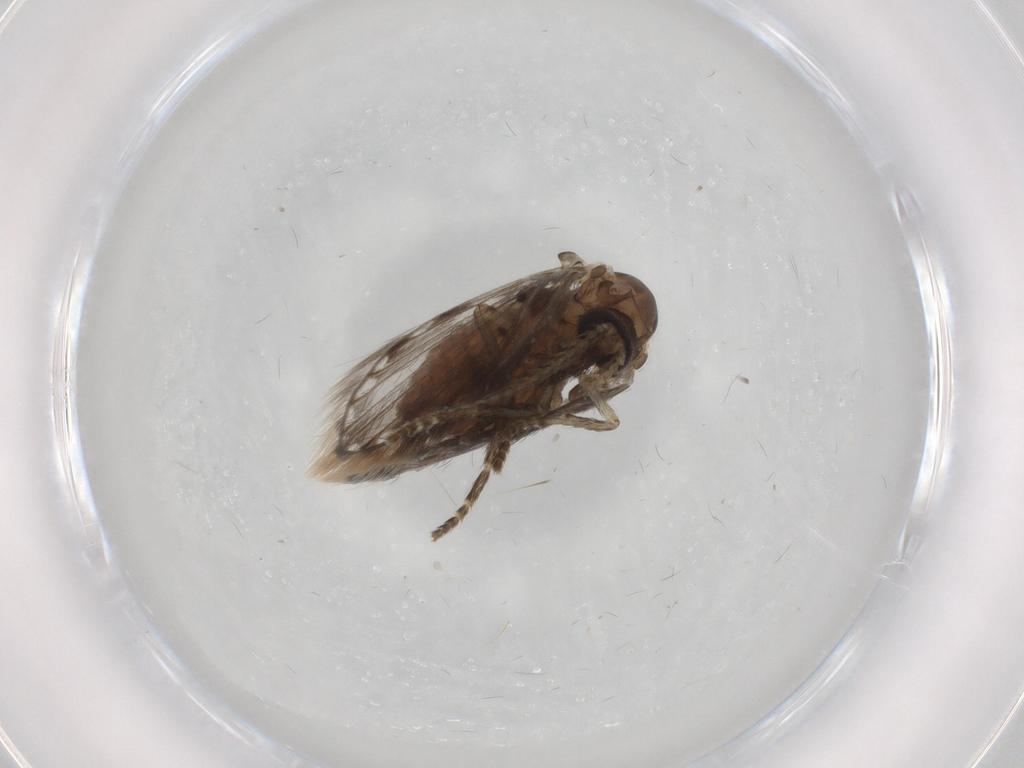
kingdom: Animalia
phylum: Arthropoda
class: Insecta
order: Diptera
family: Psychodidae
